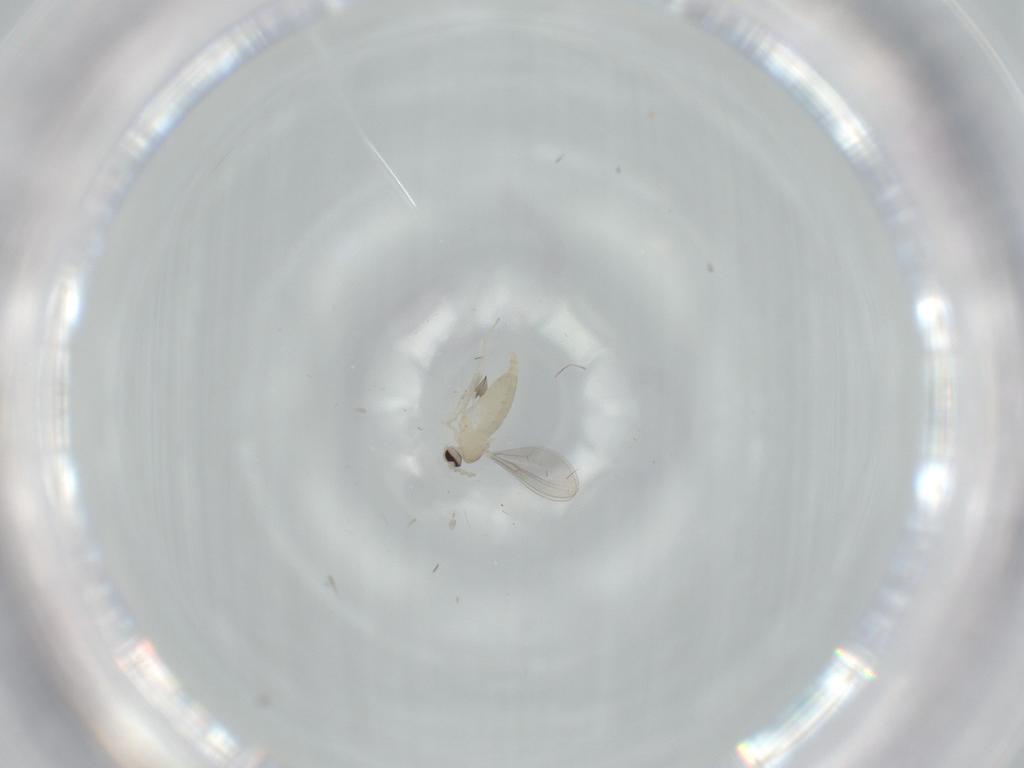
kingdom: Animalia
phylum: Arthropoda
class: Insecta
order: Diptera
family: Cecidomyiidae
